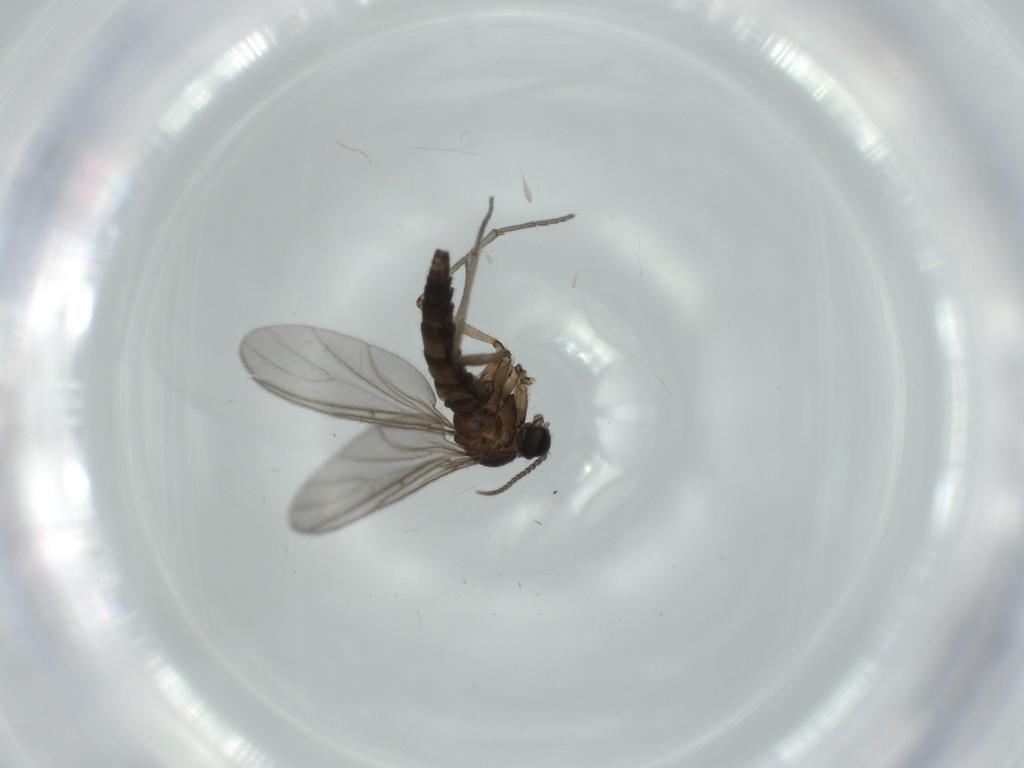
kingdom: Animalia
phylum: Arthropoda
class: Insecta
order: Diptera
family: Sciaridae
